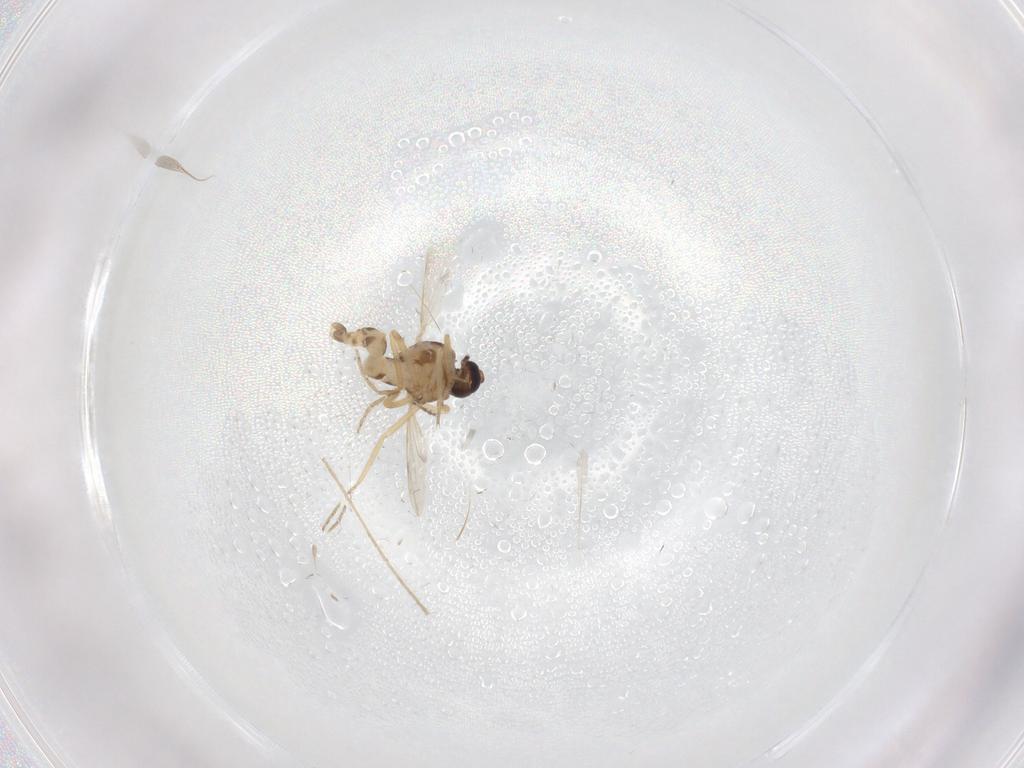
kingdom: Animalia
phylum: Arthropoda
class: Insecta
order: Diptera
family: Ceratopogonidae
